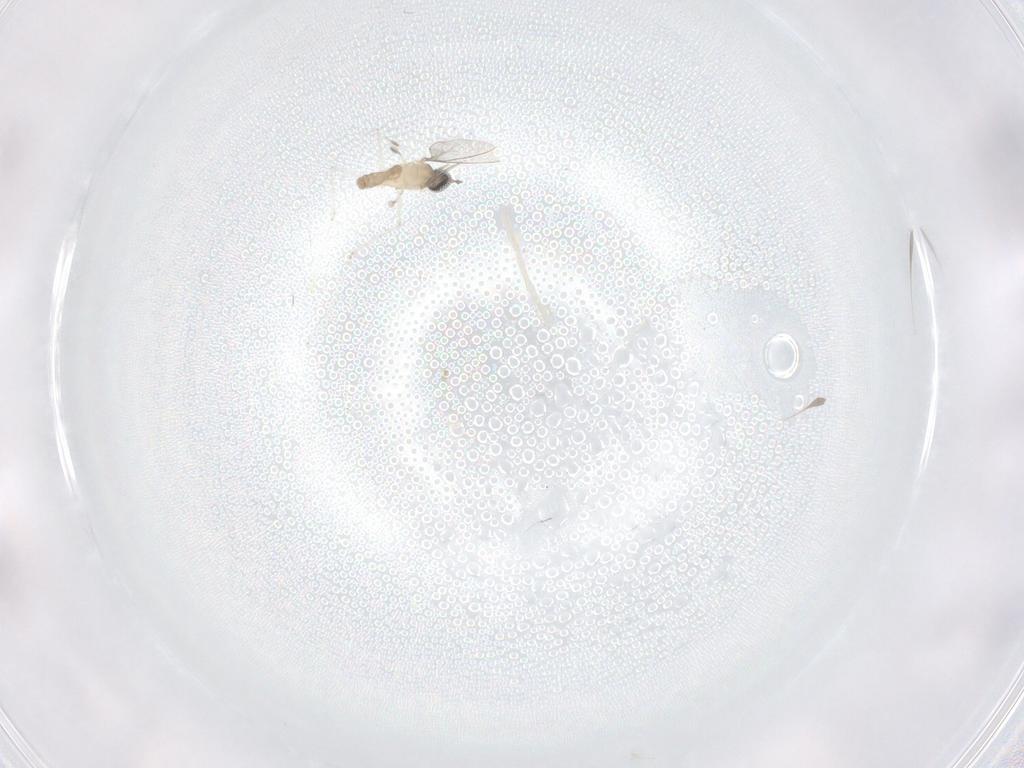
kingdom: Animalia
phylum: Arthropoda
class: Insecta
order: Diptera
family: Cecidomyiidae
